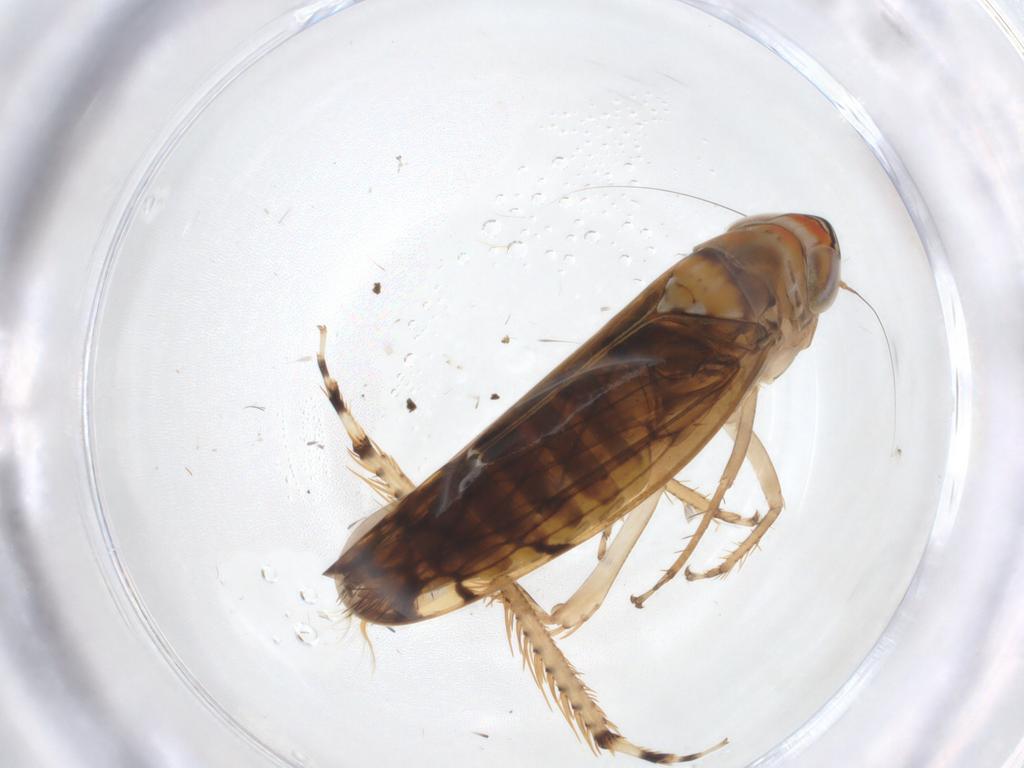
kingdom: Animalia
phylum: Arthropoda
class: Insecta
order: Hemiptera
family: Cicadellidae
